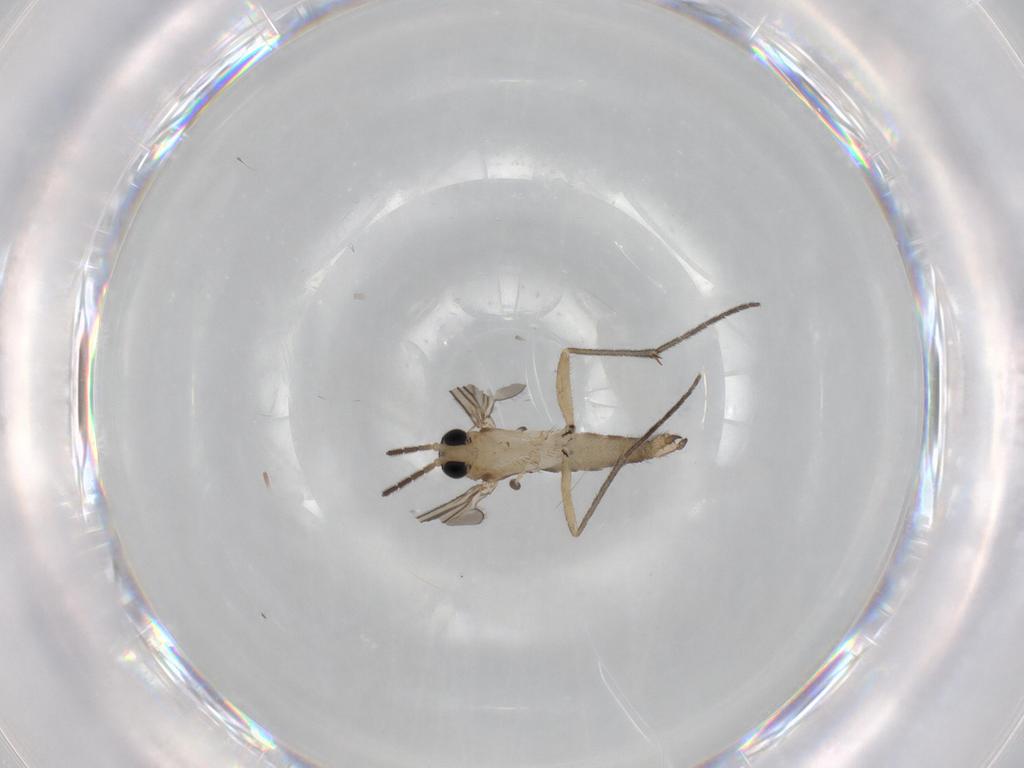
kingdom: Animalia
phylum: Arthropoda
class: Insecta
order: Diptera
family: Sciaridae
